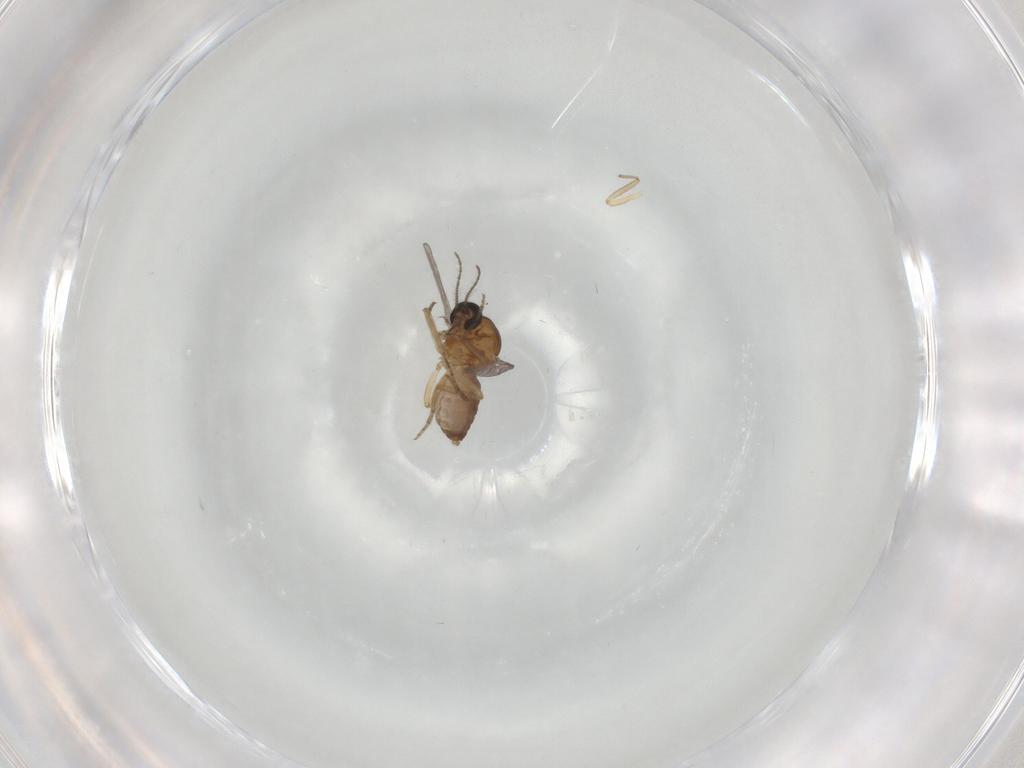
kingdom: Animalia
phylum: Arthropoda
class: Insecta
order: Diptera
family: Ceratopogonidae
